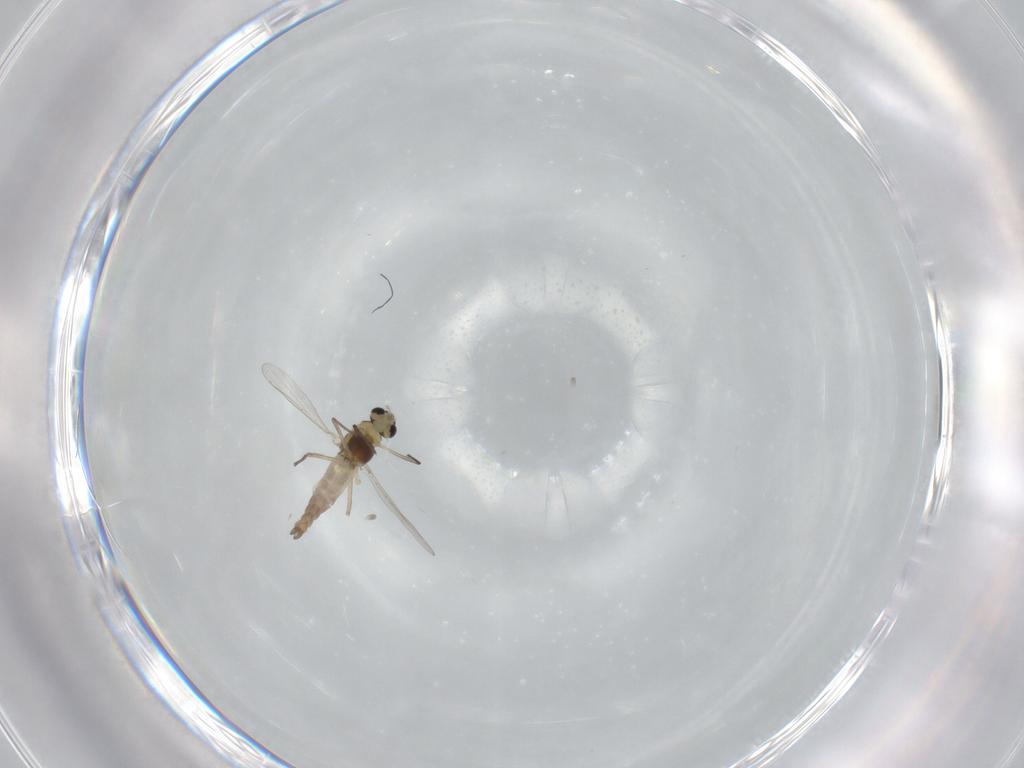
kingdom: Animalia
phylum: Arthropoda
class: Insecta
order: Diptera
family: Chironomidae
